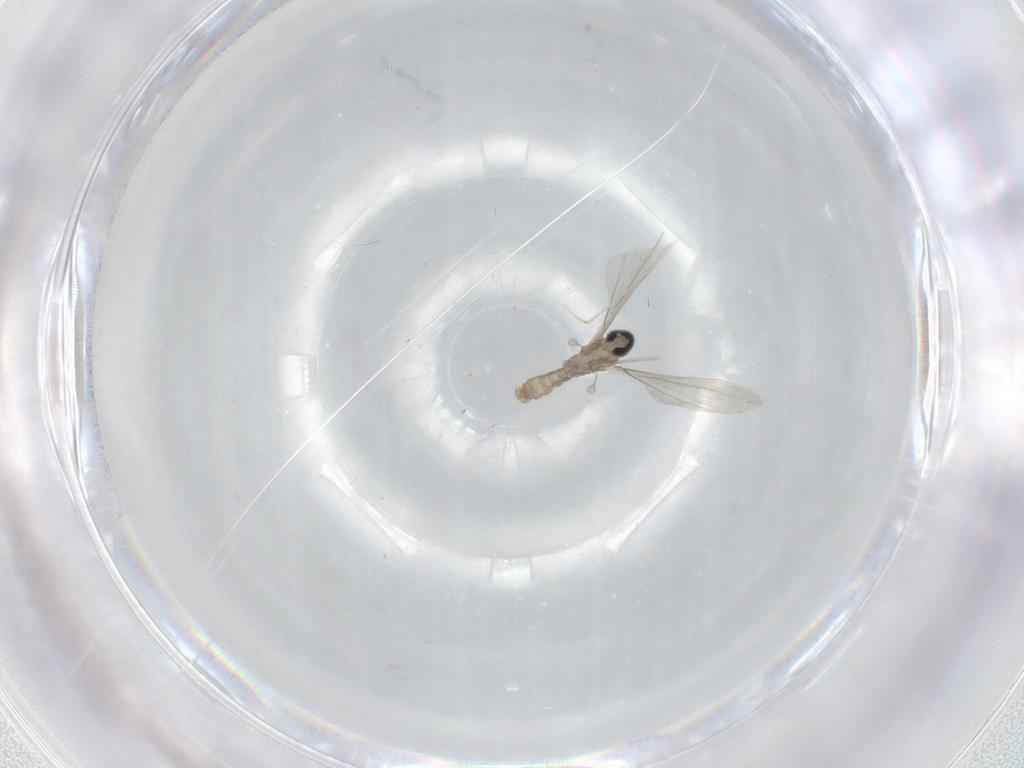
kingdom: Animalia
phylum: Arthropoda
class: Insecta
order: Diptera
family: Cecidomyiidae
